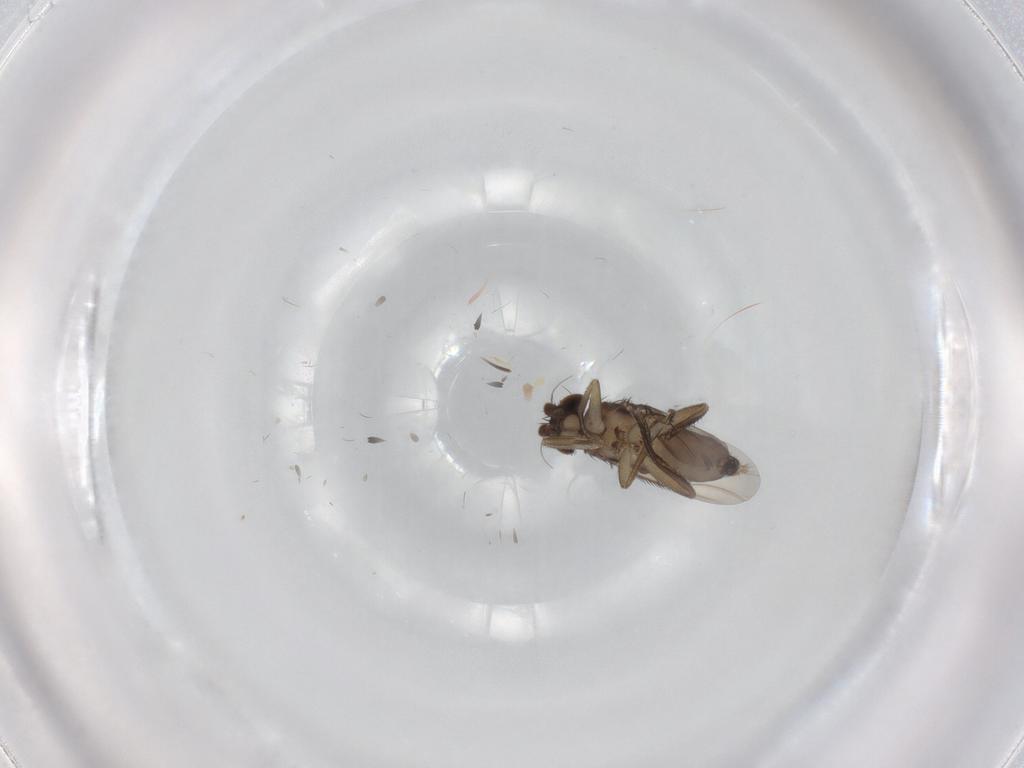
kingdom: Animalia
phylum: Arthropoda
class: Insecta
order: Diptera
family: Phoridae
